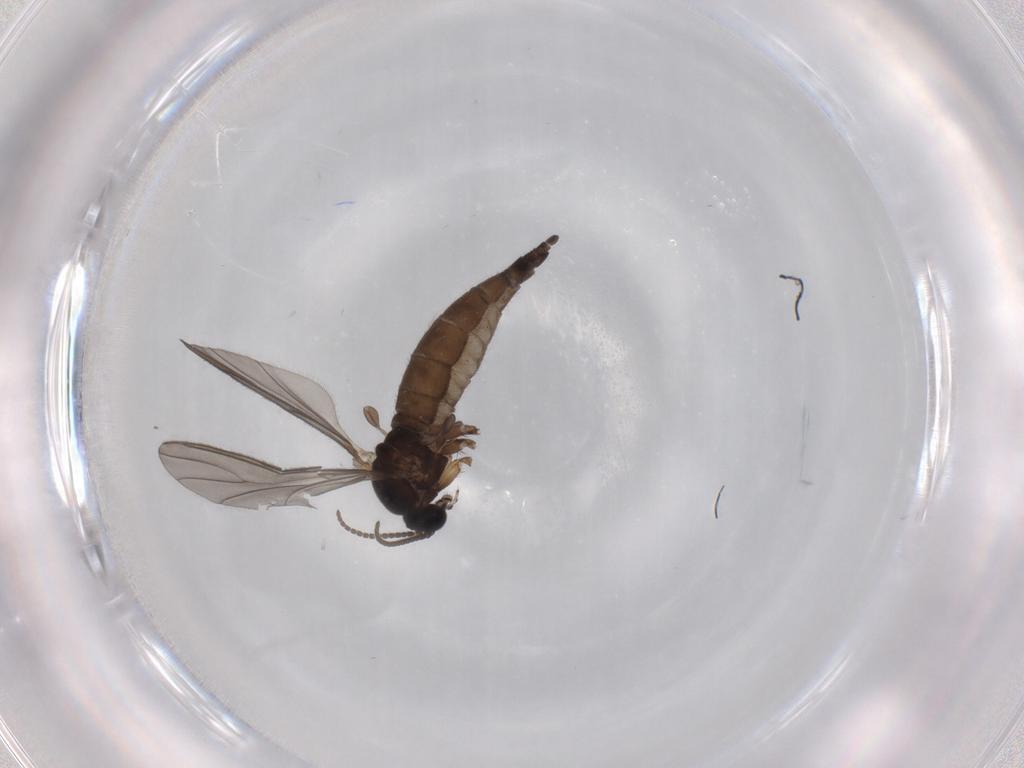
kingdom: Animalia
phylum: Arthropoda
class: Insecta
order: Diptera
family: Sciaridae
